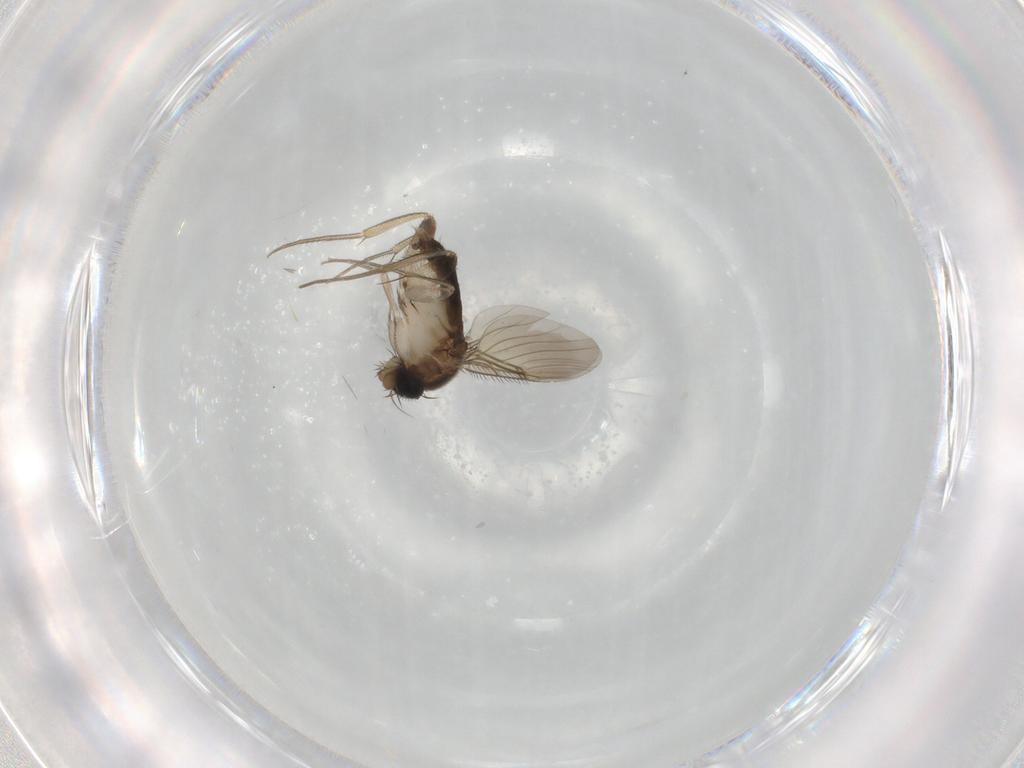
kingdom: Animalia
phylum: Arthropoda
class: Insecta
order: Diptera
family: Phoridae
